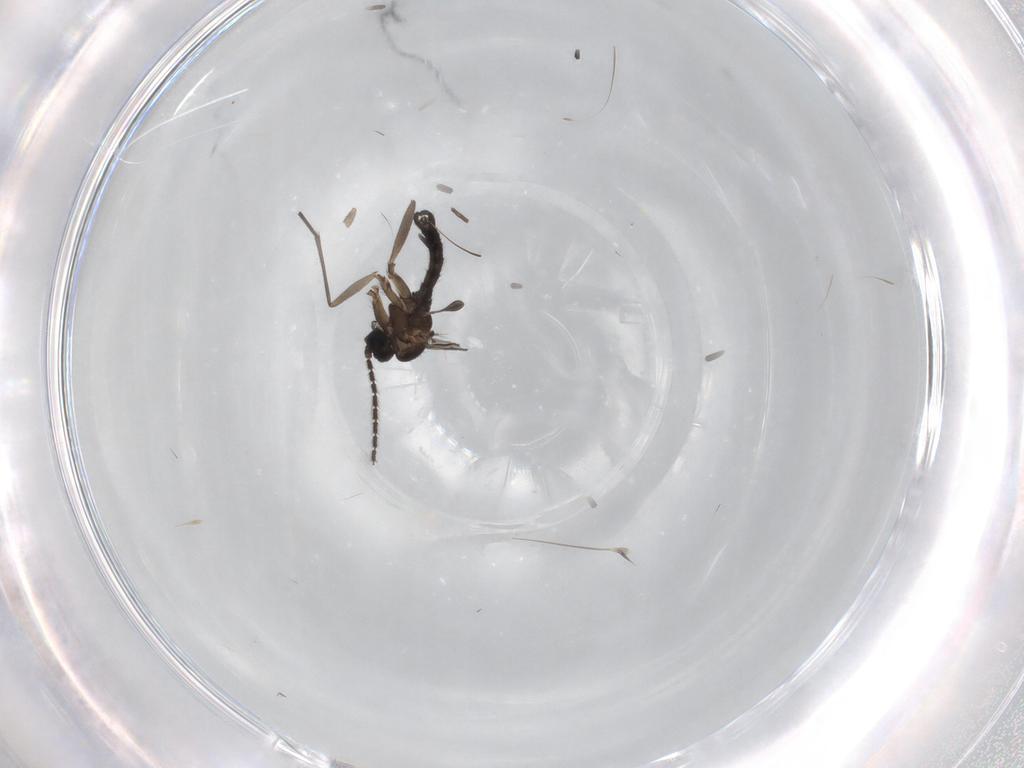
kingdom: Animalia
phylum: Arthropoda
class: Insecta
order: Diptera
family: Sciaridae
